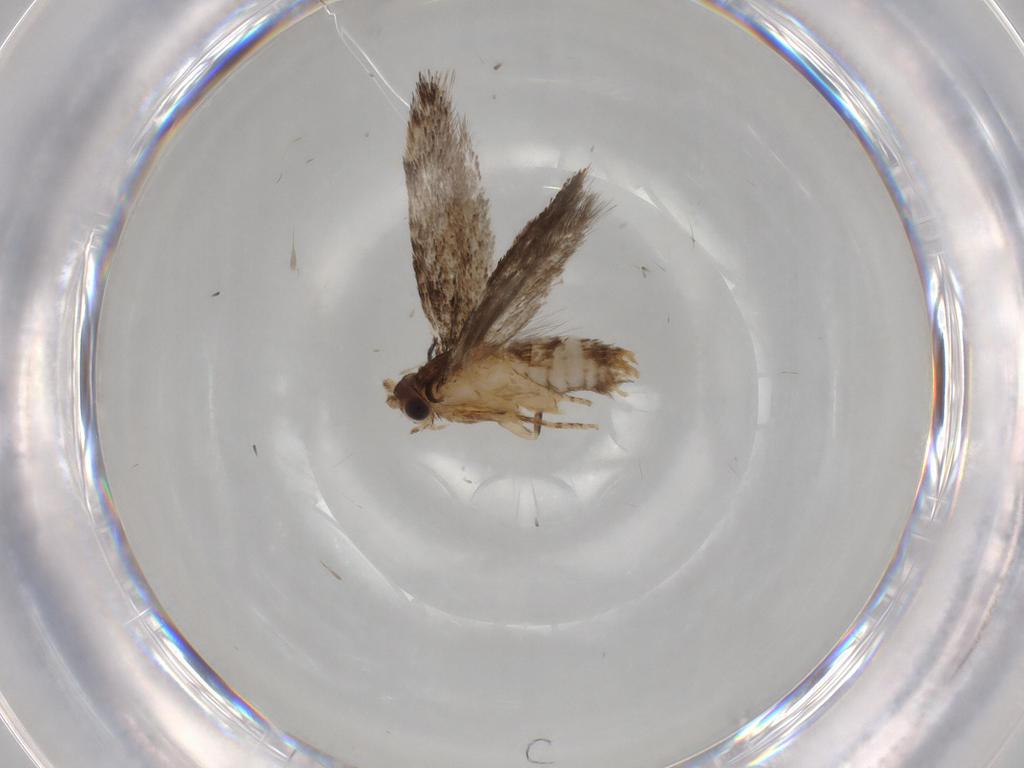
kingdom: Animalia
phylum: Arthropoda
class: Insecta
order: Lepidoptera
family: Tineidae
